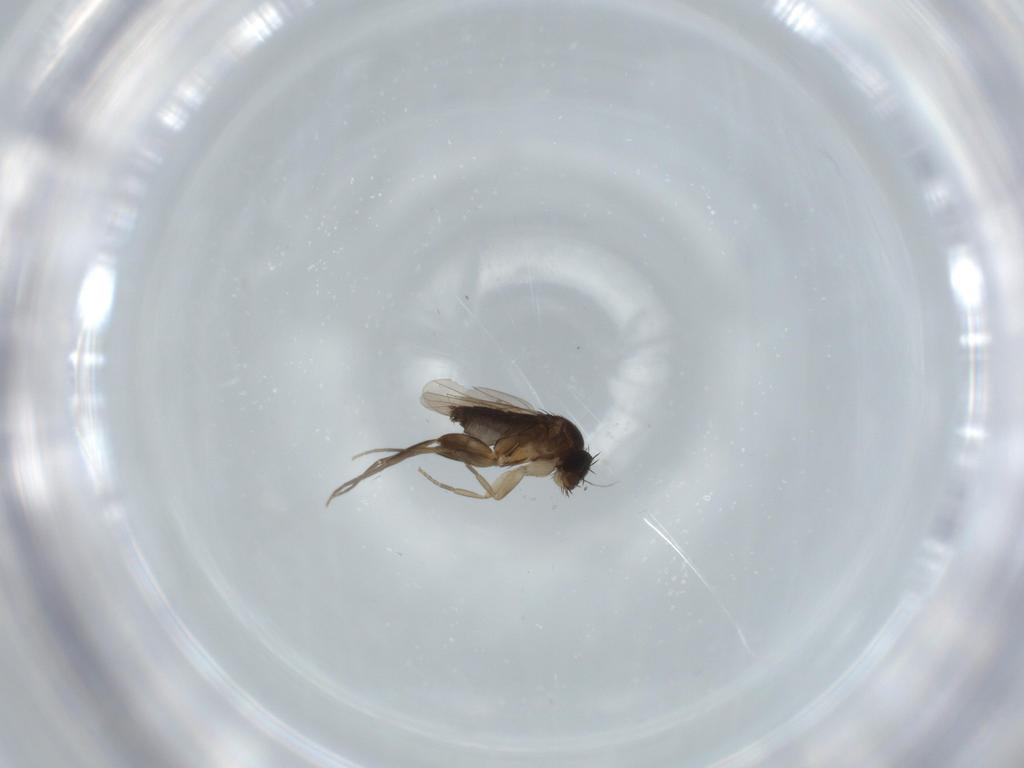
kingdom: Animalia
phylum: Arthropoda
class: Insecta
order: Diptera
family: Phoridae
